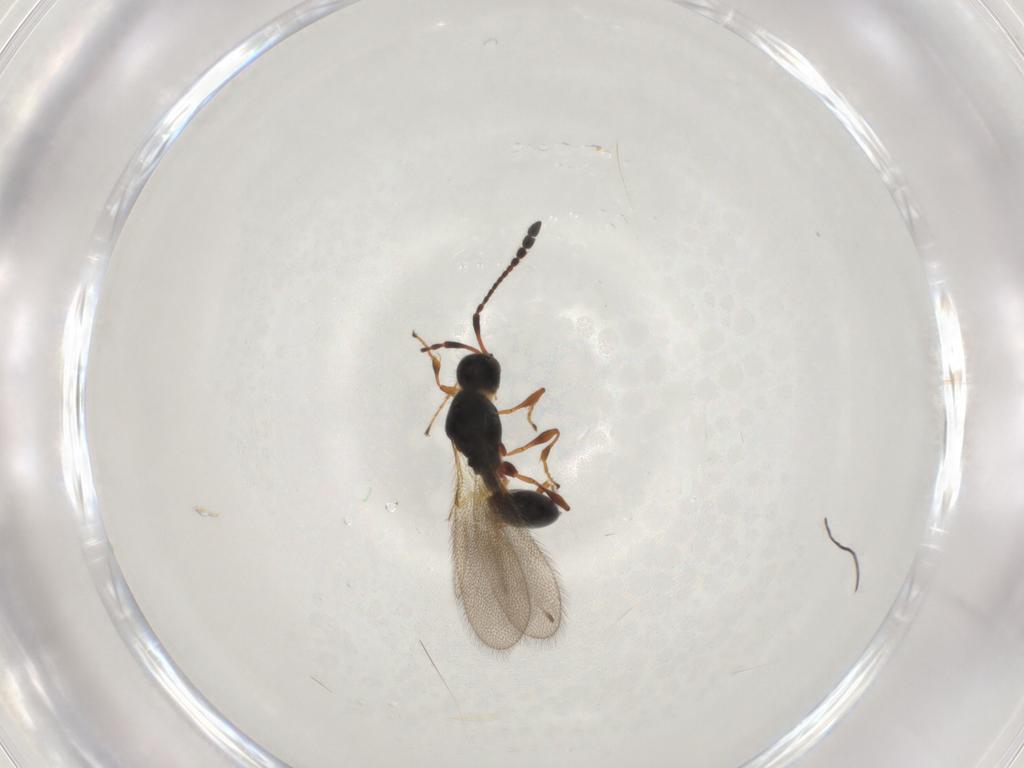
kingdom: Animalia
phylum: Arthropoda
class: Insecta
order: Hymenoptera
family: Diapriidae
